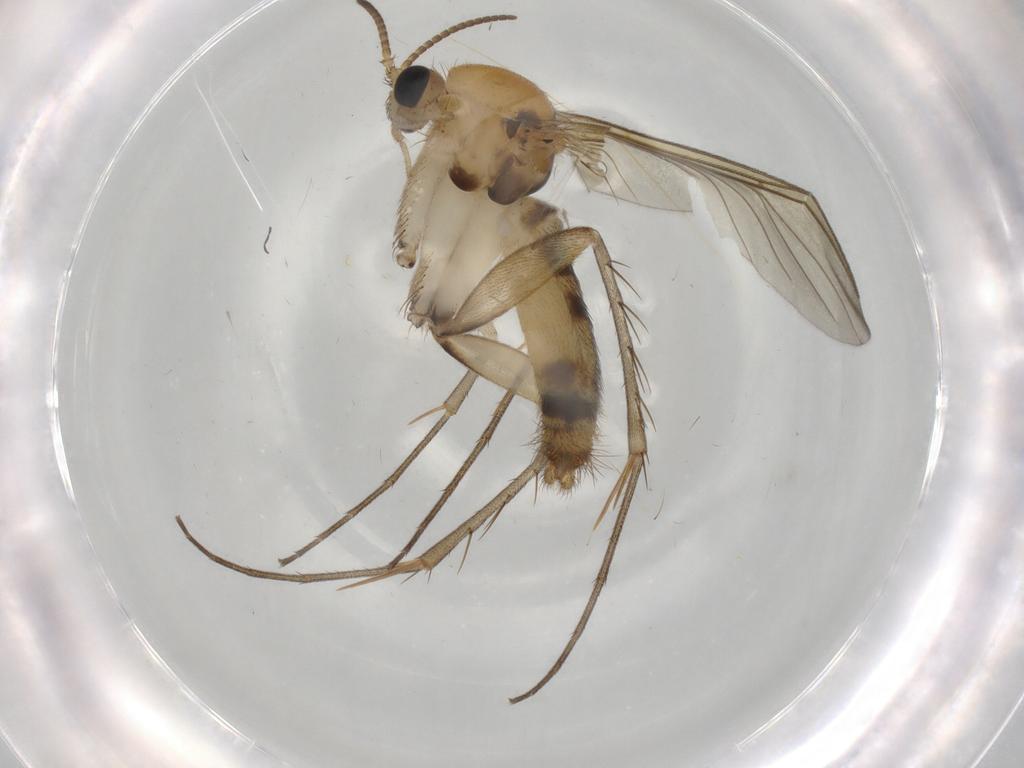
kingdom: Animalia
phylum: Arthropoda
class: Insecta
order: Diptera
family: Mycetophilidae
